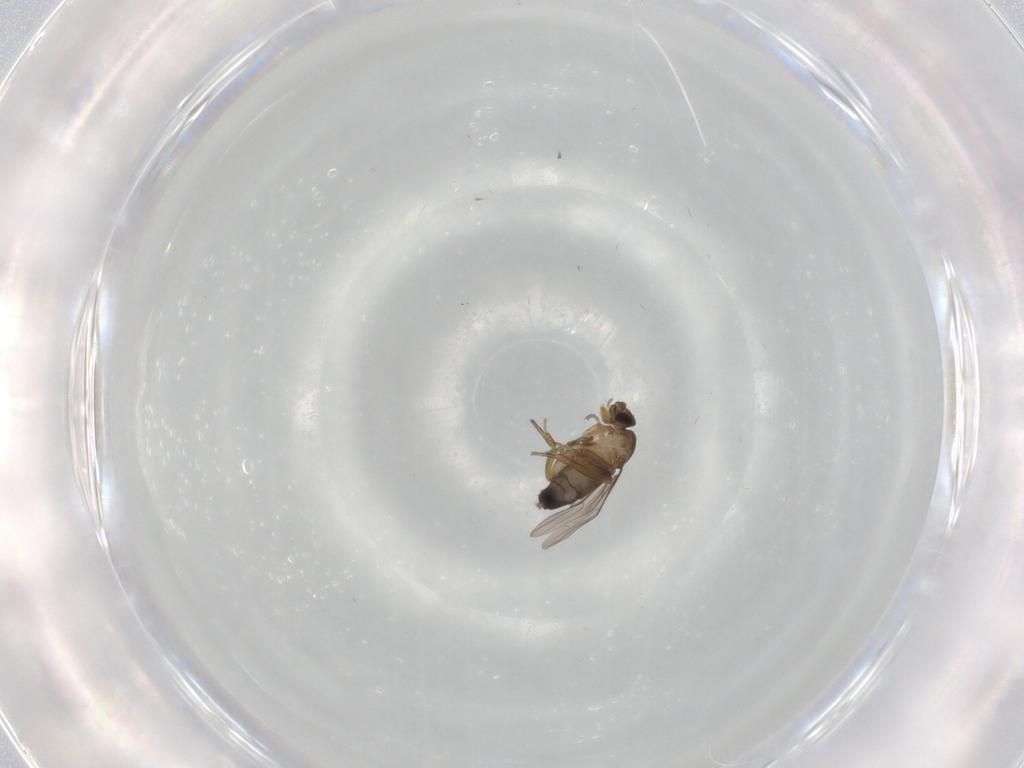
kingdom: Animalia
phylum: Arthropoda
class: Insecta
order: Diptera
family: Phoridae
